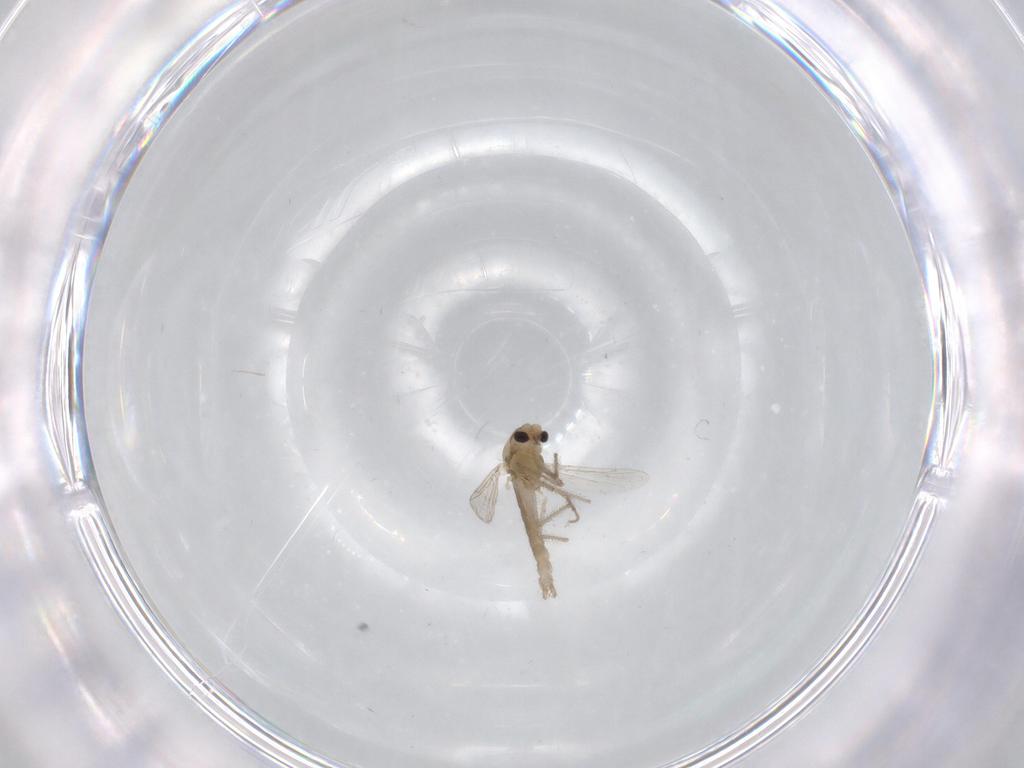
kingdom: Animalia
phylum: Arthropoda
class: Insecta
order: Diptera
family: Chironomidae
